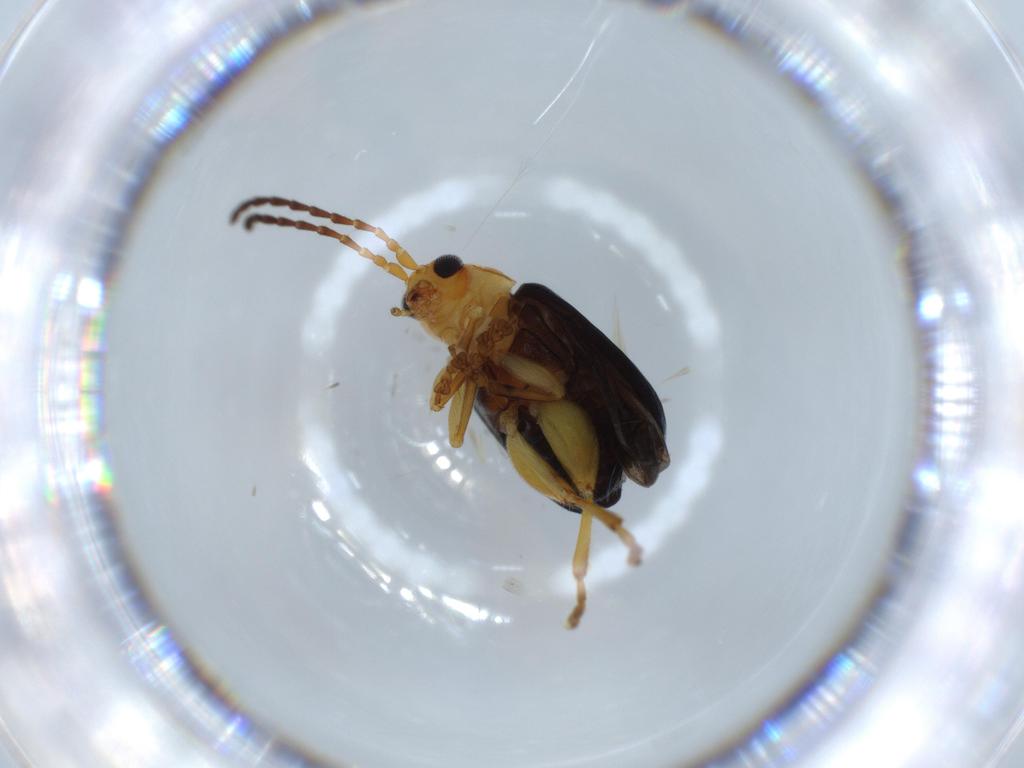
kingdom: Animalia
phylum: Arthropoda
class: Insecta
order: Coleoptera
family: Chrysomelidae
